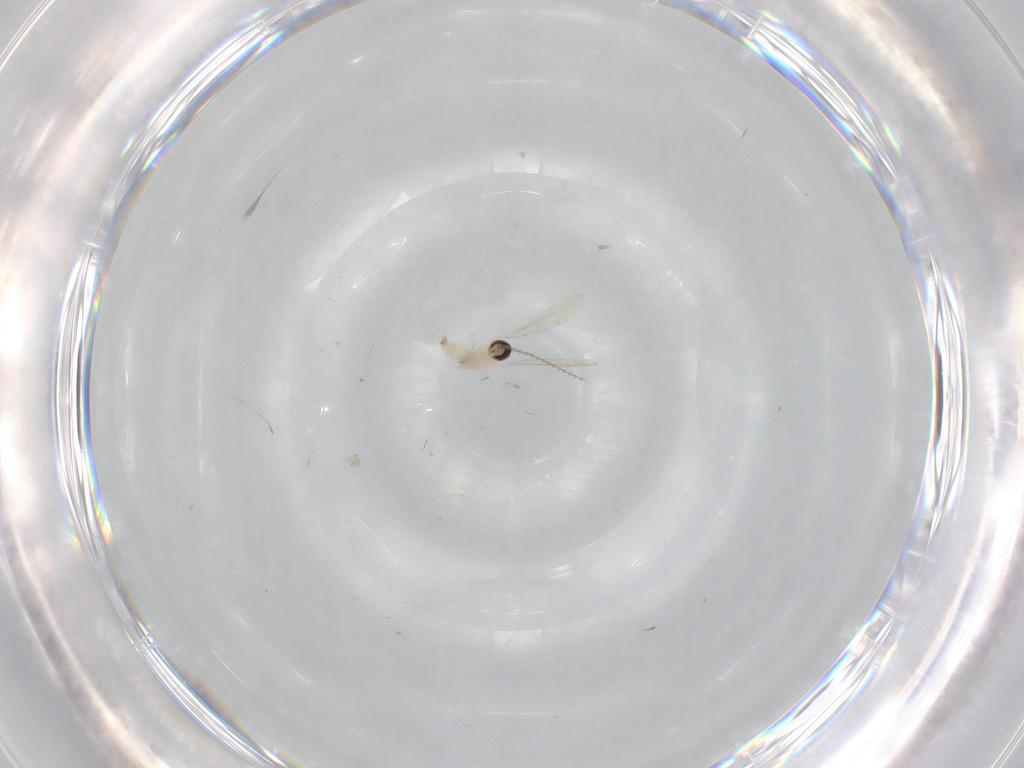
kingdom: Animalia
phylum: Arthropoda
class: Insecta
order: Diptera
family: Cecidomyiidae
